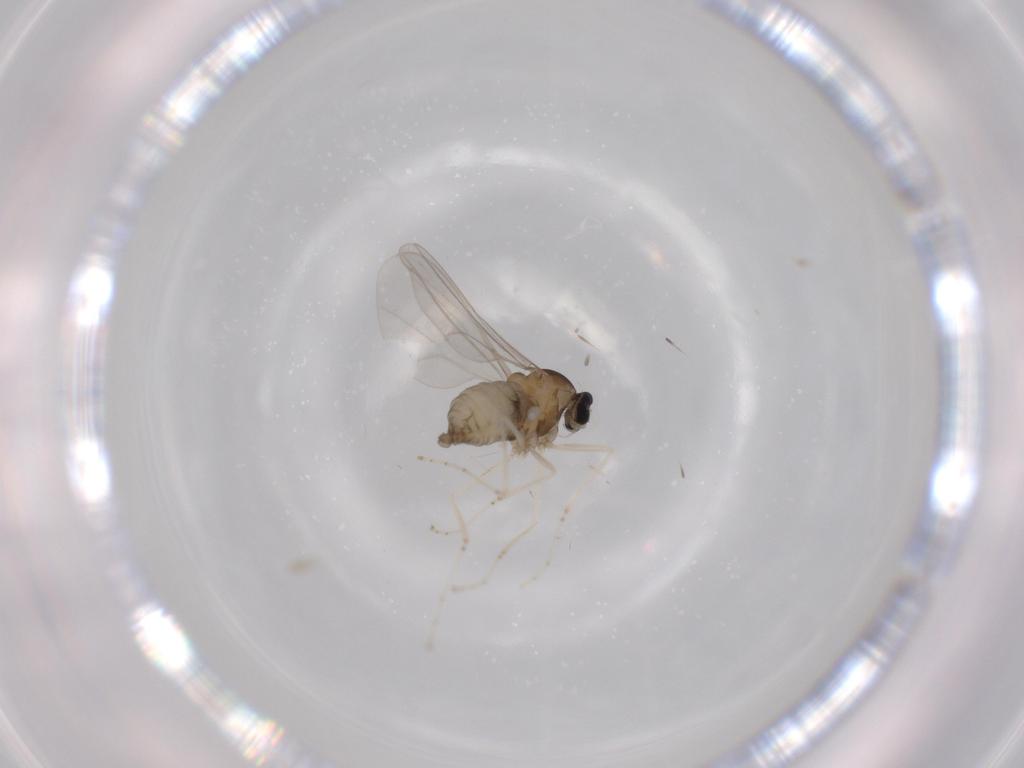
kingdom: Animalia
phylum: Arthropoda
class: Insecta
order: Diptera
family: Cecidomyiidae
